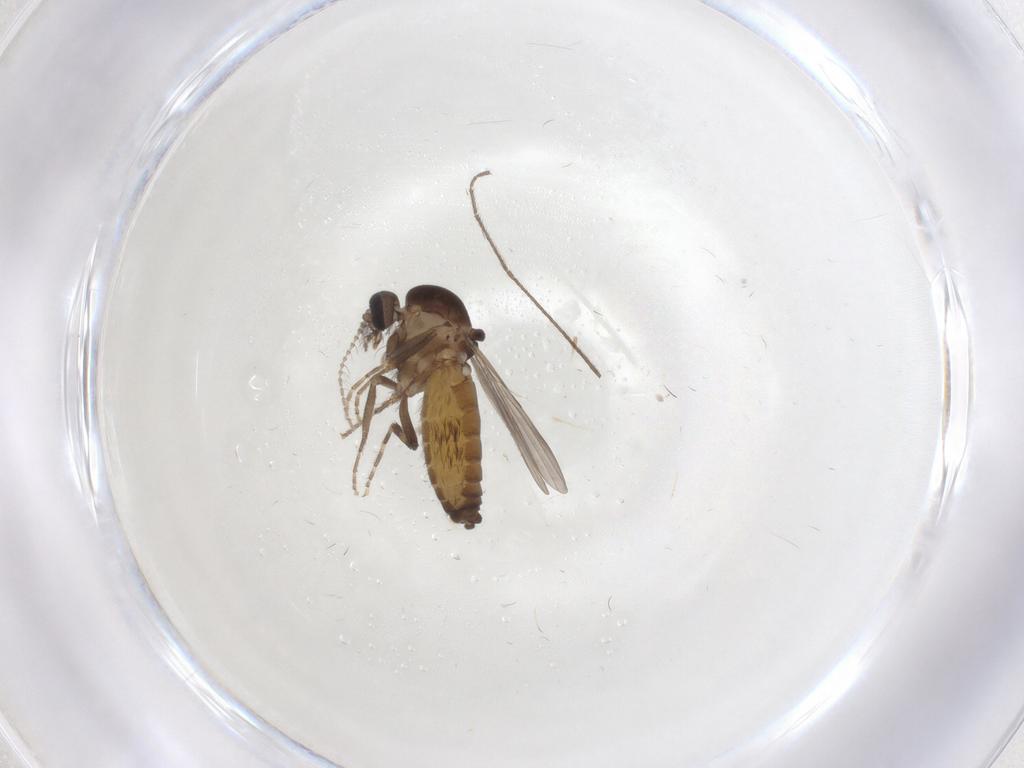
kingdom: Animalia
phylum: Arthropoda
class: Insecta
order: Diptera
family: Ceratopogonidae
